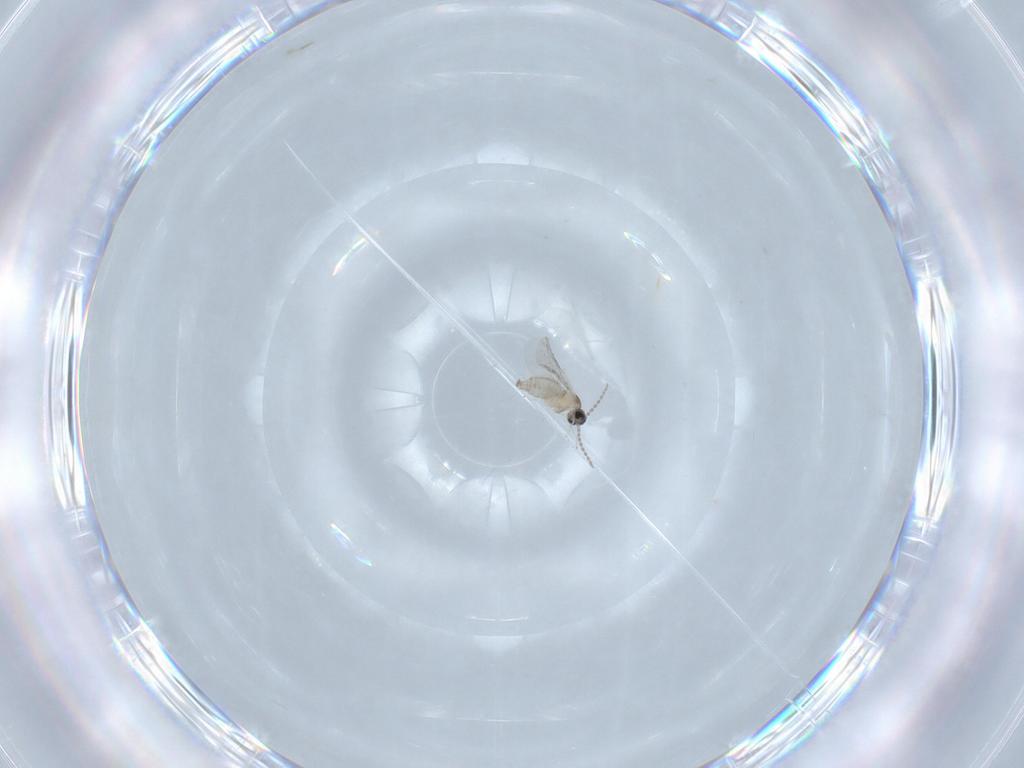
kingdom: Animalia
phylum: Arthropoda
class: Insecta
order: Diptera
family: Cecidomyiidae
